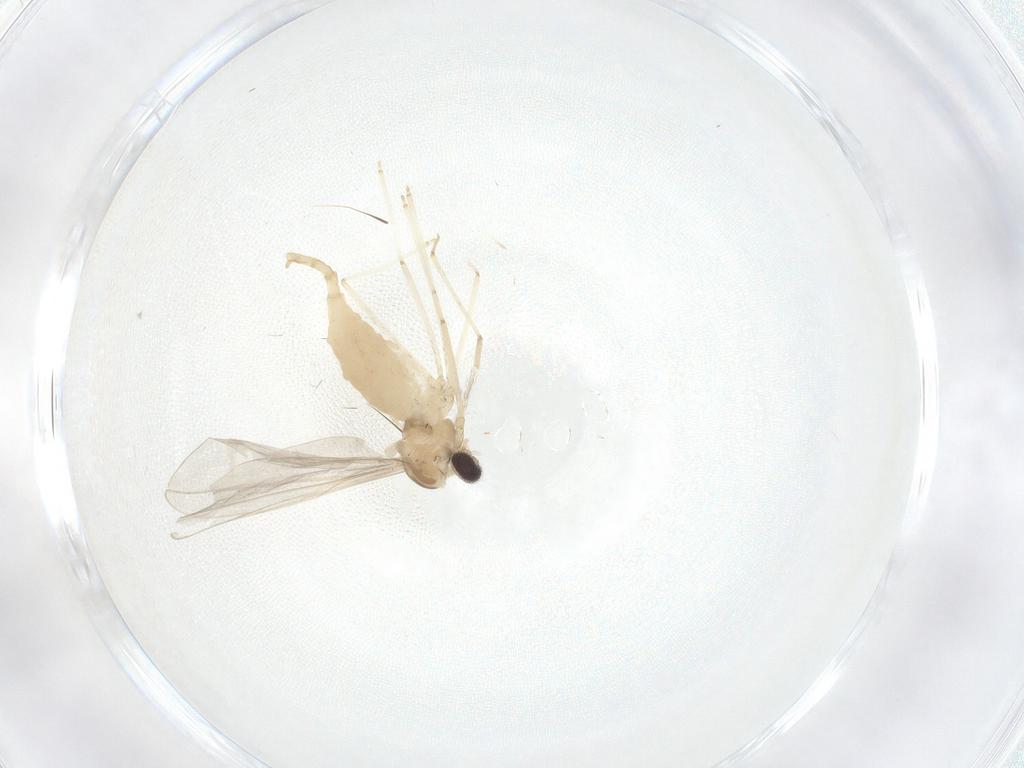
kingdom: Animalia
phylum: Arthropoda
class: Insecta
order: Diptera
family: Cecidomyiidae
